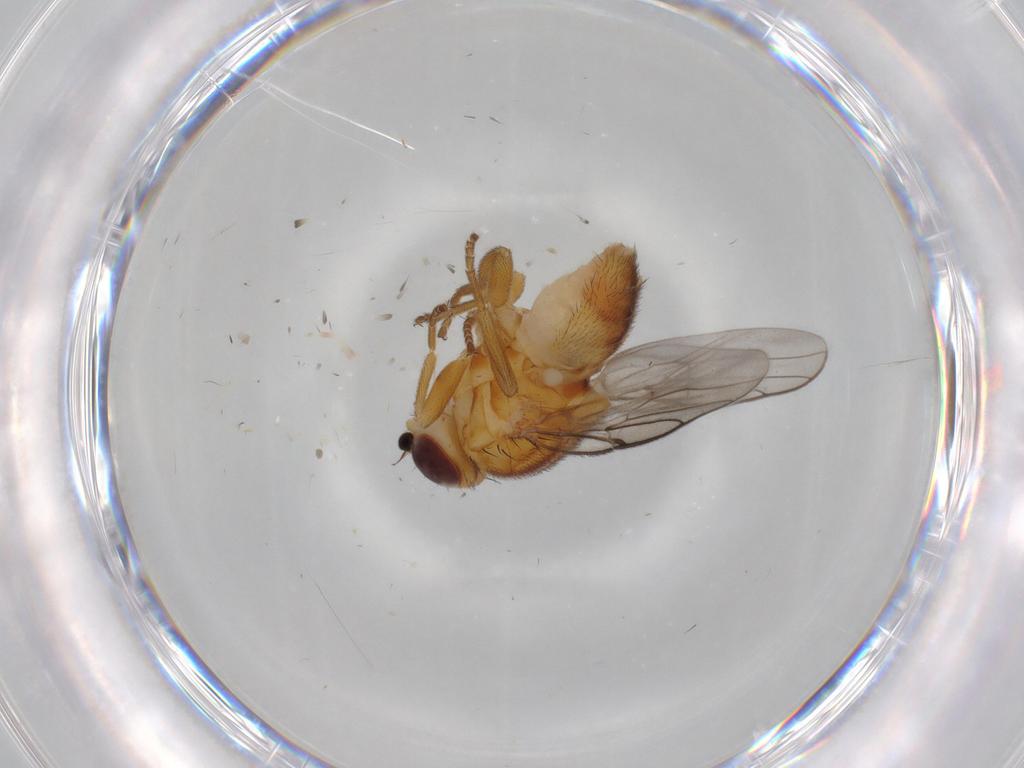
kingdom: Animalia
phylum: Arthropoda
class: Insecta
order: Diptera
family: Chloropidae
